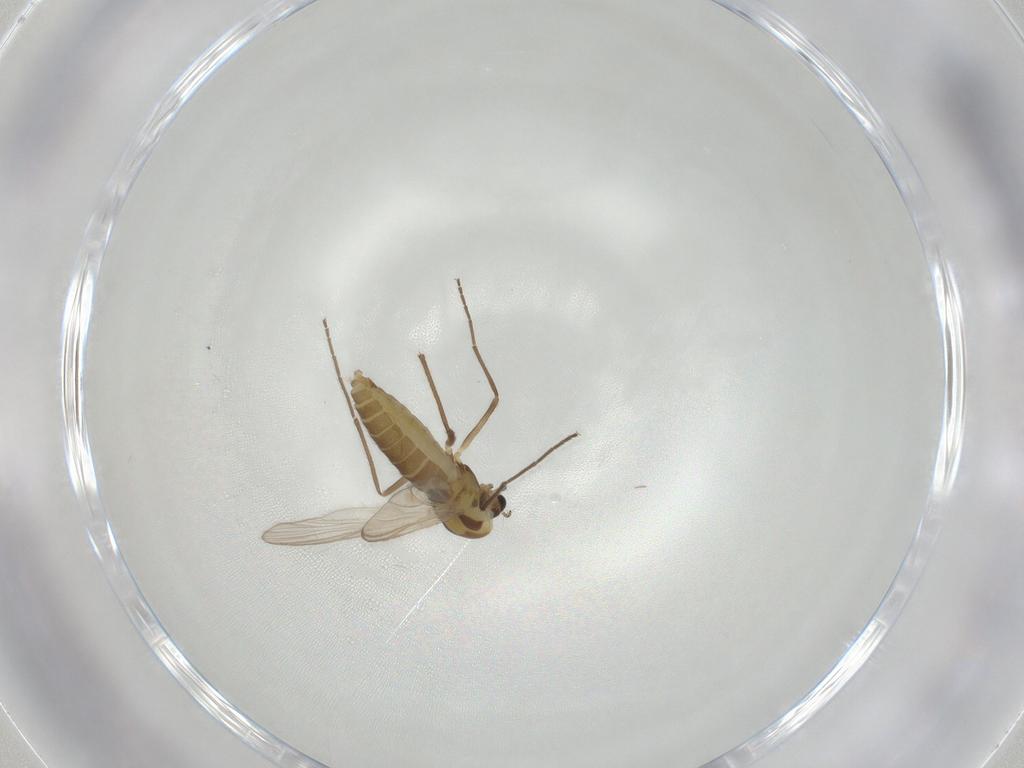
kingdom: Animalia
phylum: Arthropoda
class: Insecta
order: Diptera
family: Chironomidae
